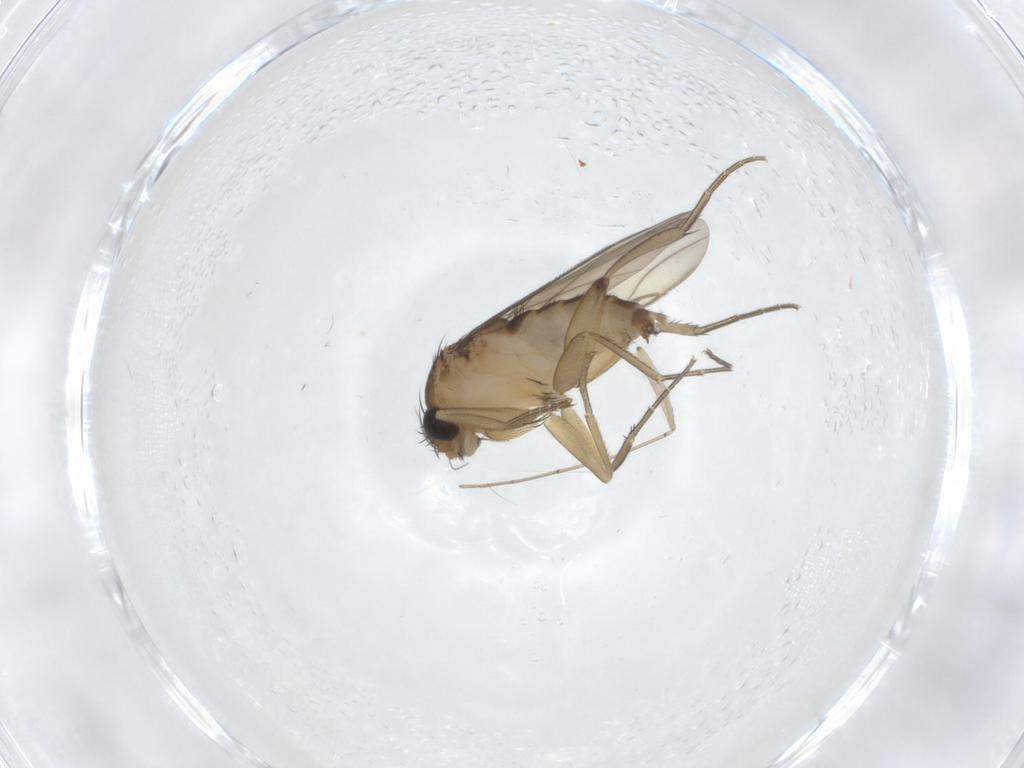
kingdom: Animalia
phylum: Arthropoda
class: Insecta
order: Diptera
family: Phoridae
